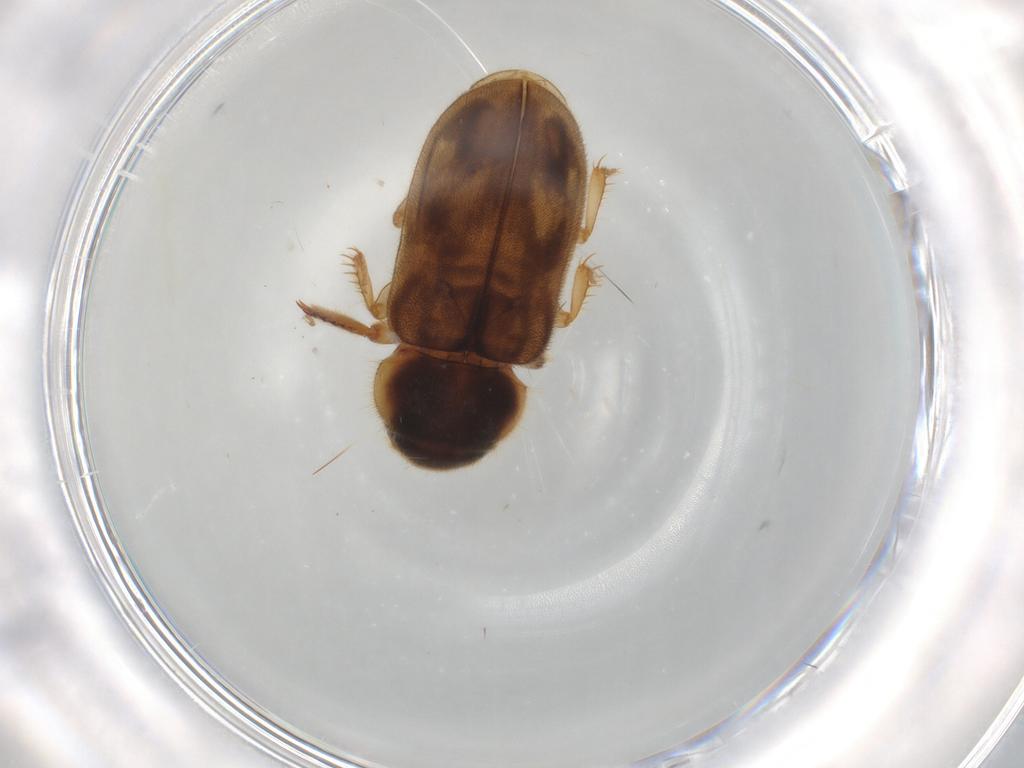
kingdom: Animalia
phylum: Arthropoda
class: Insecta
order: Coleoptera
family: Heteroceridae
